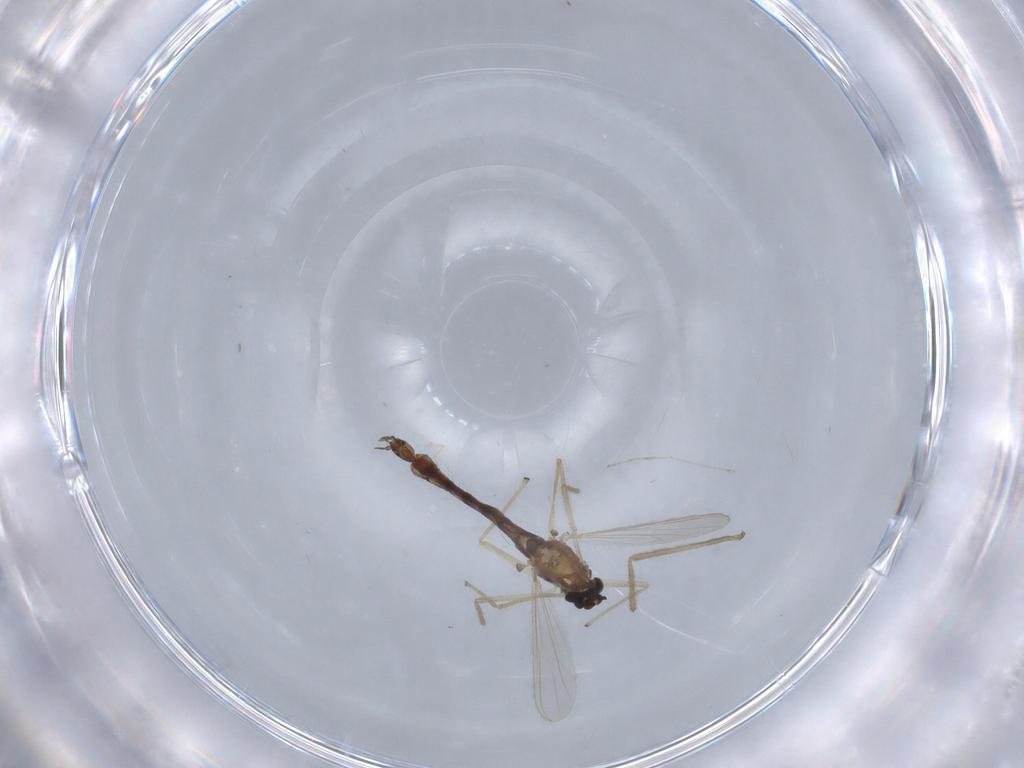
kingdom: Animalia
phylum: Arthropoda
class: Insecta
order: Diptera
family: Chironomidae
